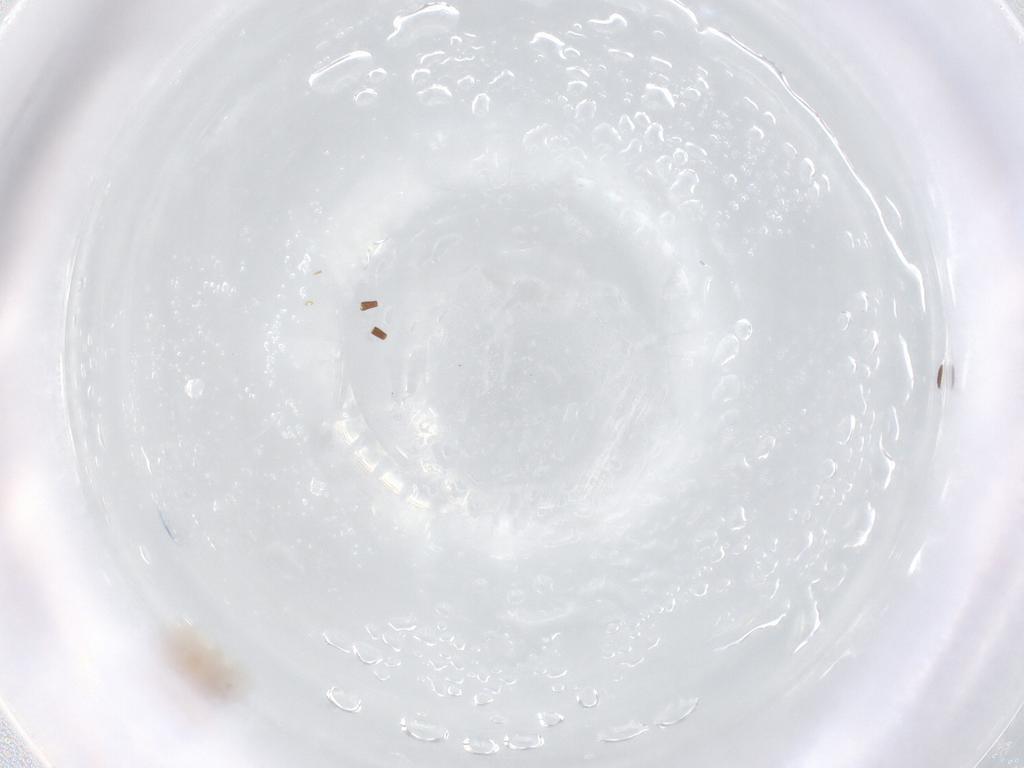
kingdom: Animalia
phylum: Arthropoda
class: Insecta
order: Hymenoptera
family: Formicidae
